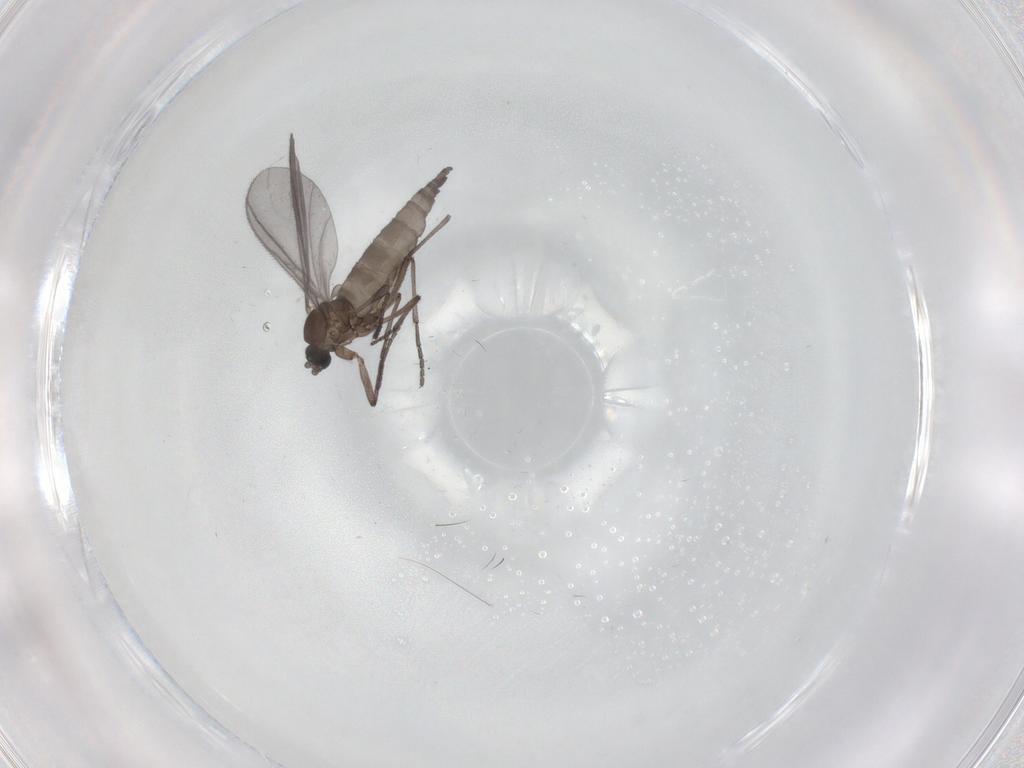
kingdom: Animalia
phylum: Arthropoda
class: Insecta
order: Diptera
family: Sciaridae
